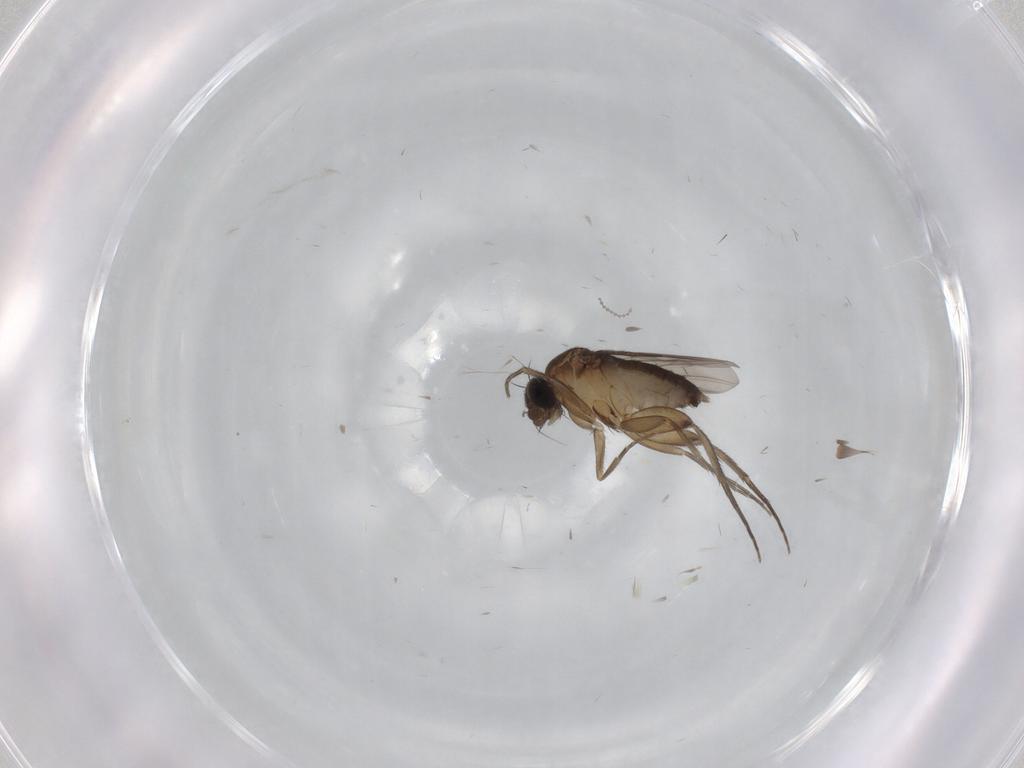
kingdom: Animalia
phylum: Arthropoda
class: Insecta
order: Diptera
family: Phoridae
